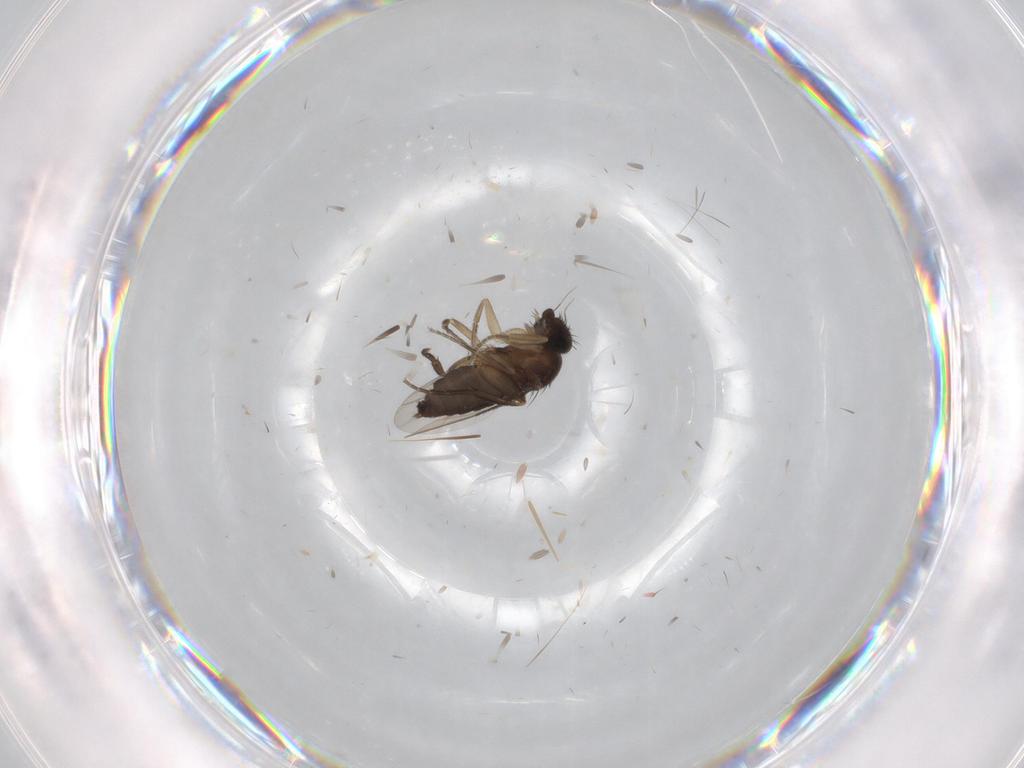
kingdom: Animalia
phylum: Arthropoda
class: Insecta
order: Diptera
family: Phoridae
